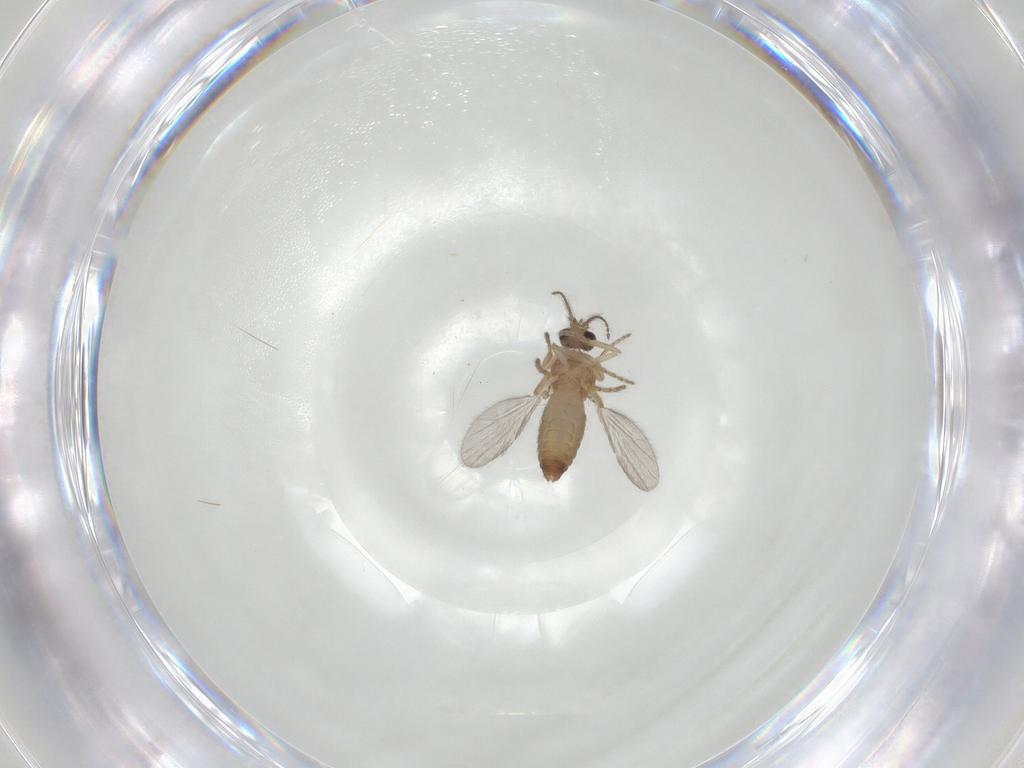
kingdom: Animalia
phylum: Arthropoda
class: Insecta
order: Diptera
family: Ceratopogonidae
